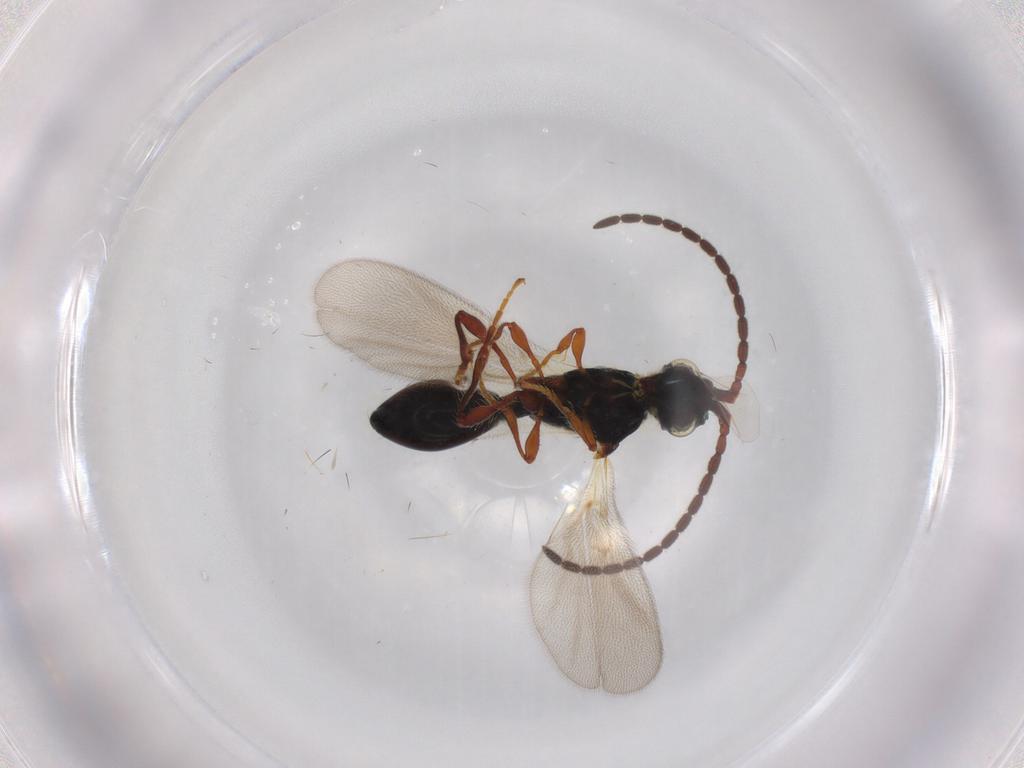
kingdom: Animalia
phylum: Arthropoda
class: Insecta
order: Hymenoptera
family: Diapriidae
